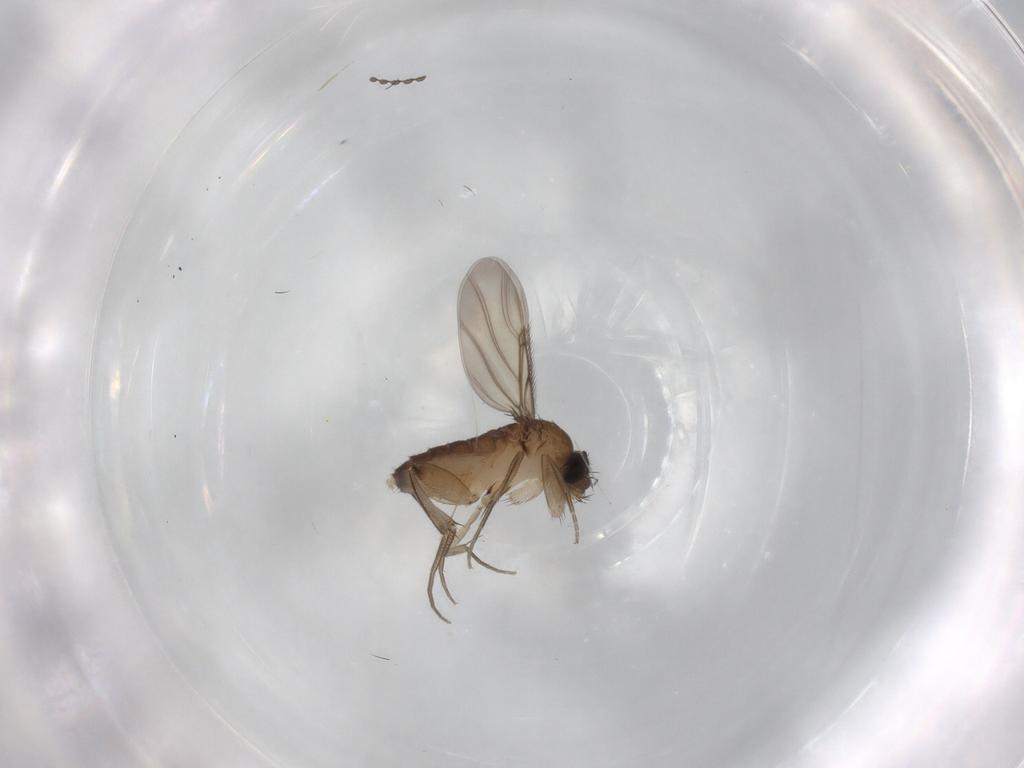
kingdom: Animalia
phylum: Arthropoda
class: Insecta
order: Diptera
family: Phoridae
